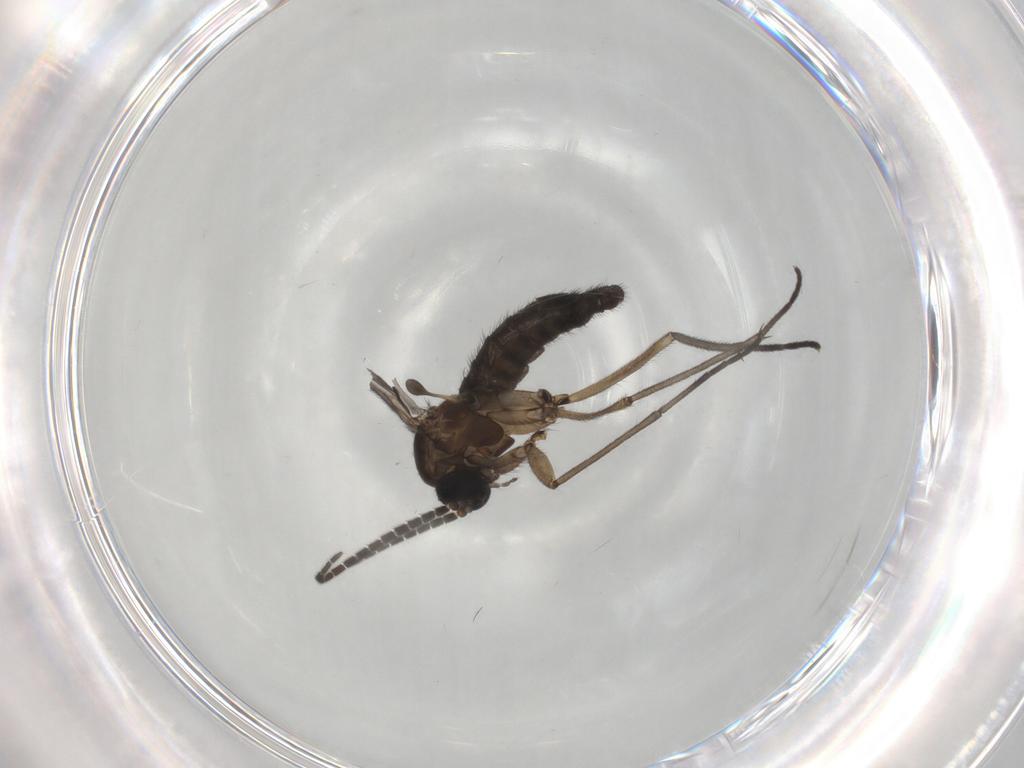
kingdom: Animalia
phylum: Arthropoda
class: Insecta
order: Diptera
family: Sciaridae
